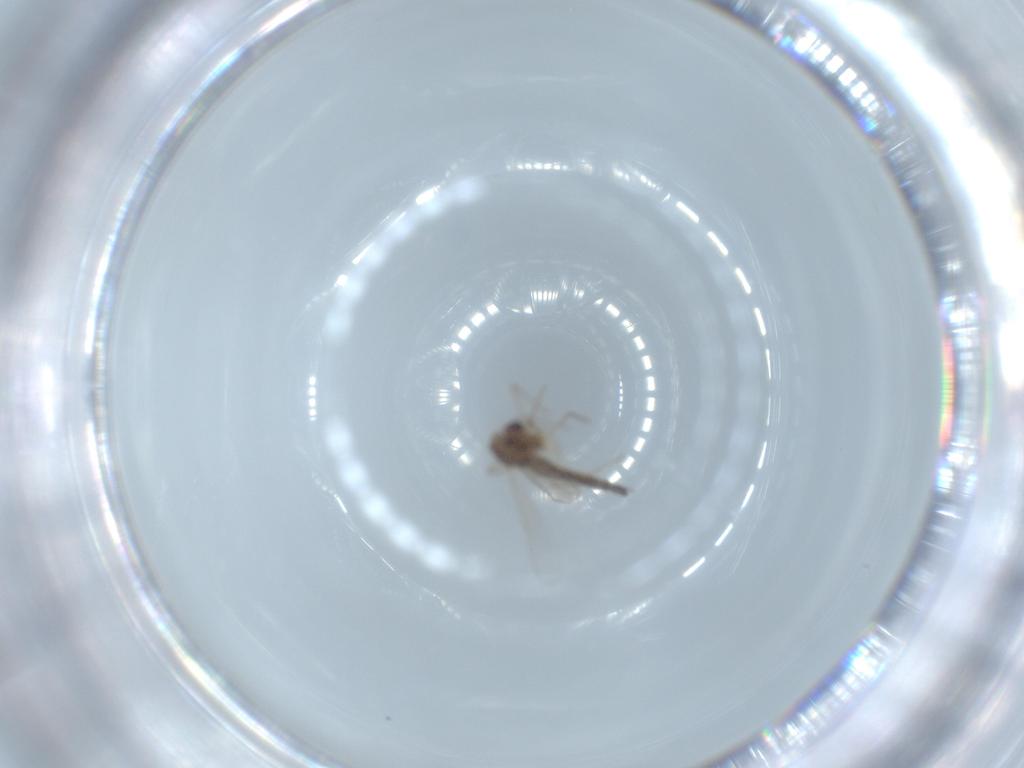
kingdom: Animalia
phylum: Arthropoda
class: Insecta
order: Diptera
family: Chironomidae
